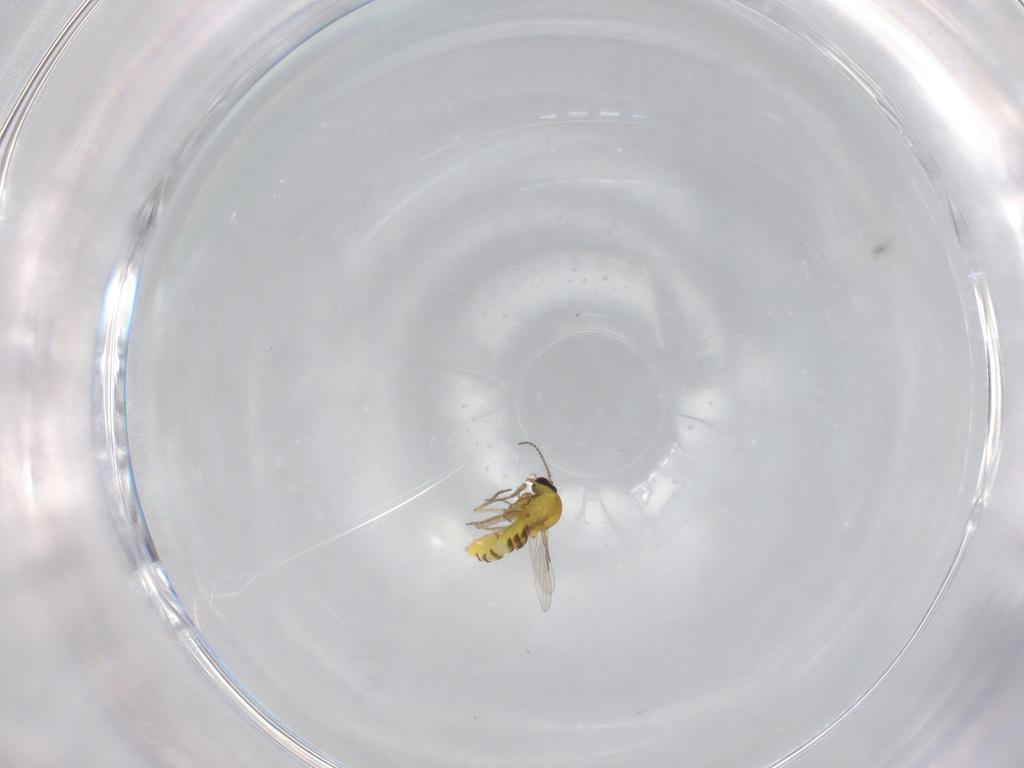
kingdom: Animalia
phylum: Arthropoda
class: Insecta
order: Diptera
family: Ceratopogonidae
